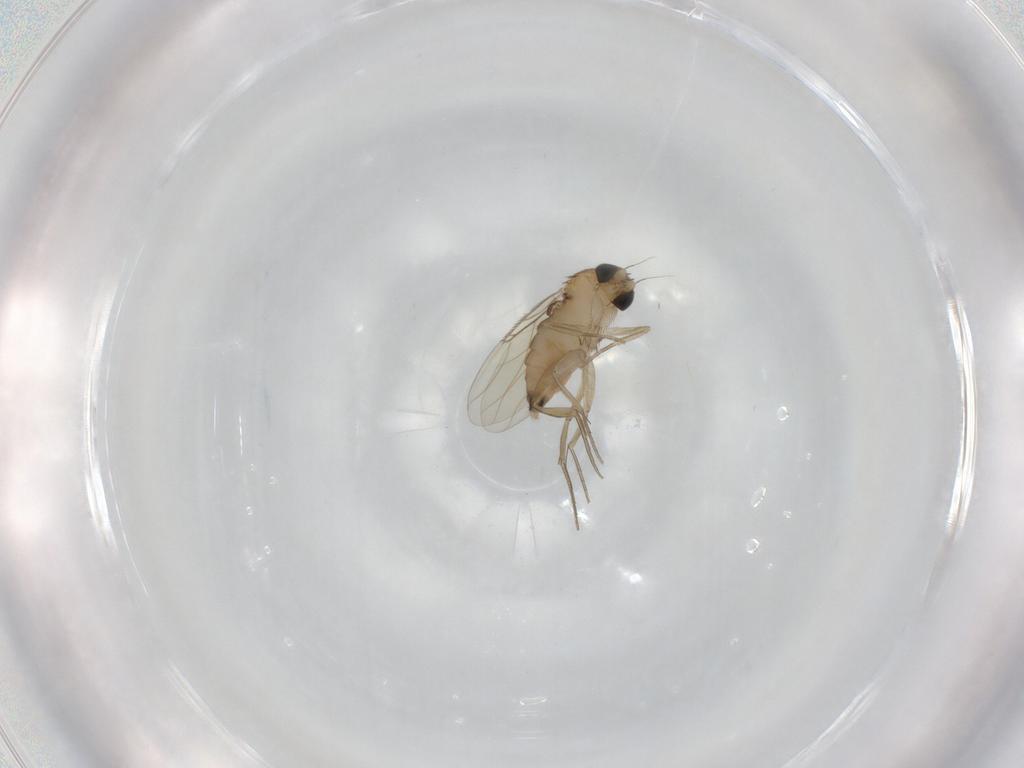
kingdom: Animalia
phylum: Arthropoda
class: Insecta
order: Diptera
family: Phoridae
